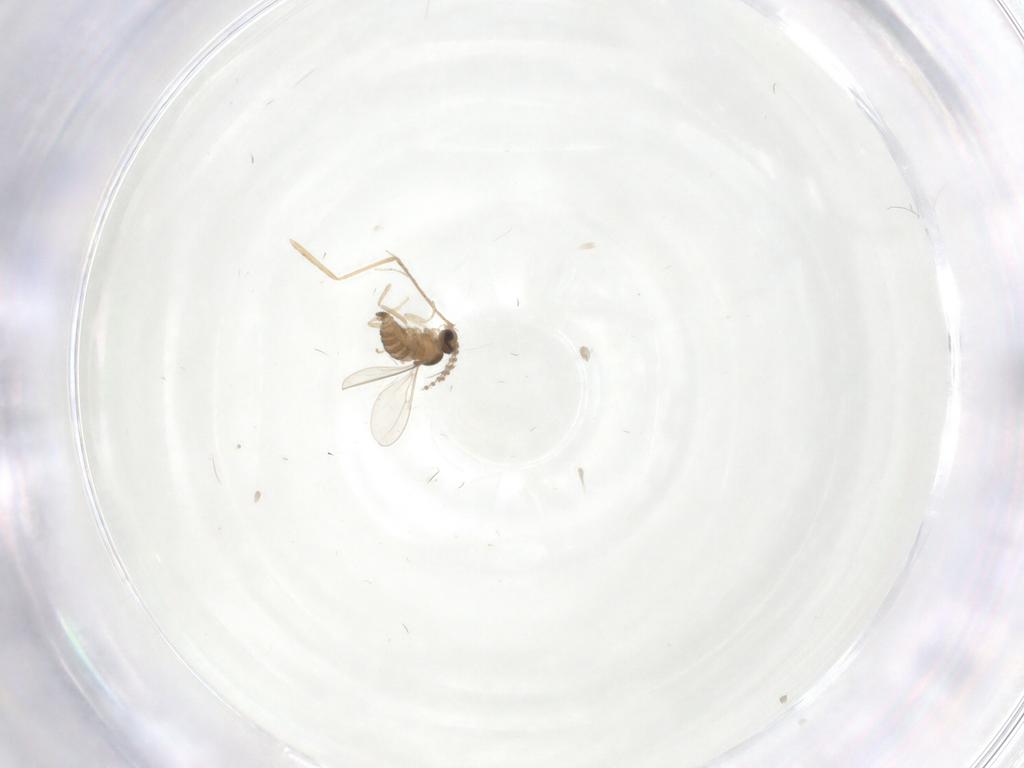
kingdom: Animalia
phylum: Arthropoda
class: Insecta
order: Diptera
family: Cecidomyiidae
